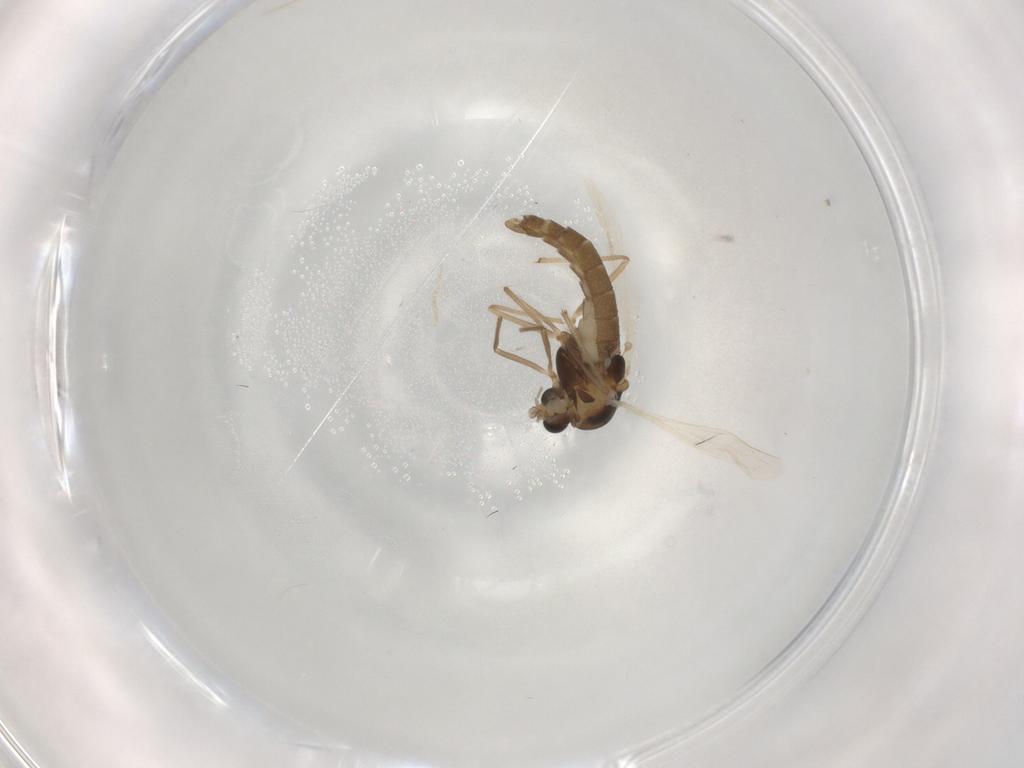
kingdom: Animalia
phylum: Arthropoda
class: Insecta
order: Diptera
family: Chironomidae
